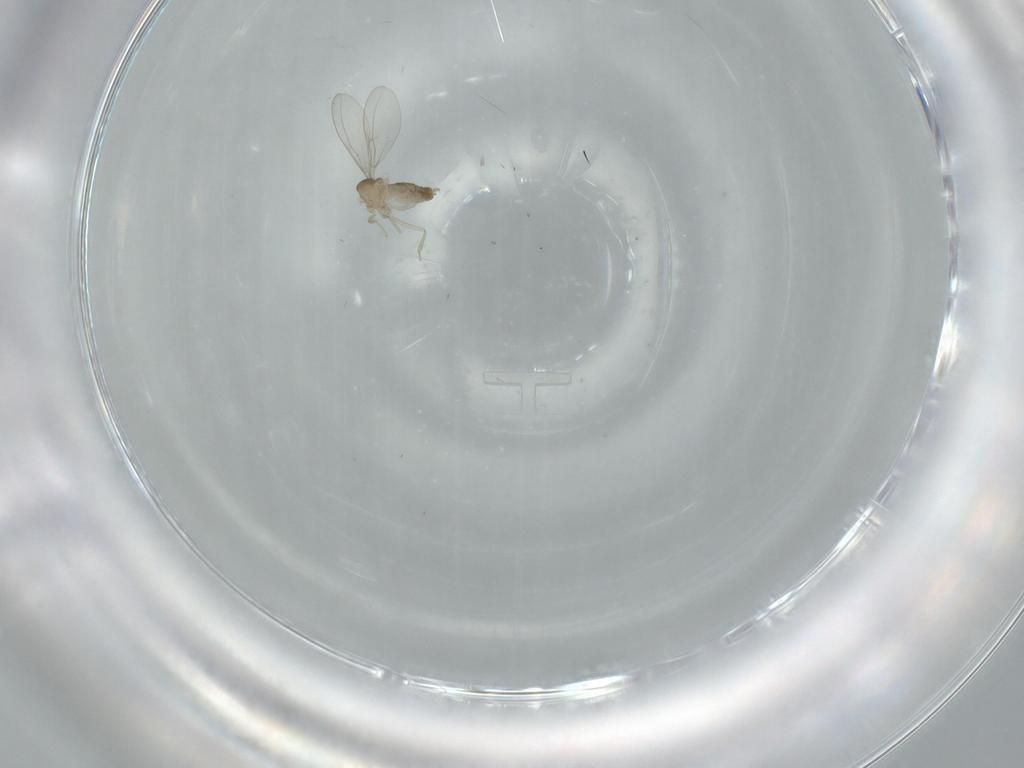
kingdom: Animalia
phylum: Arthropoda
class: Insecta
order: Diptera
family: Cecidomyiidae
